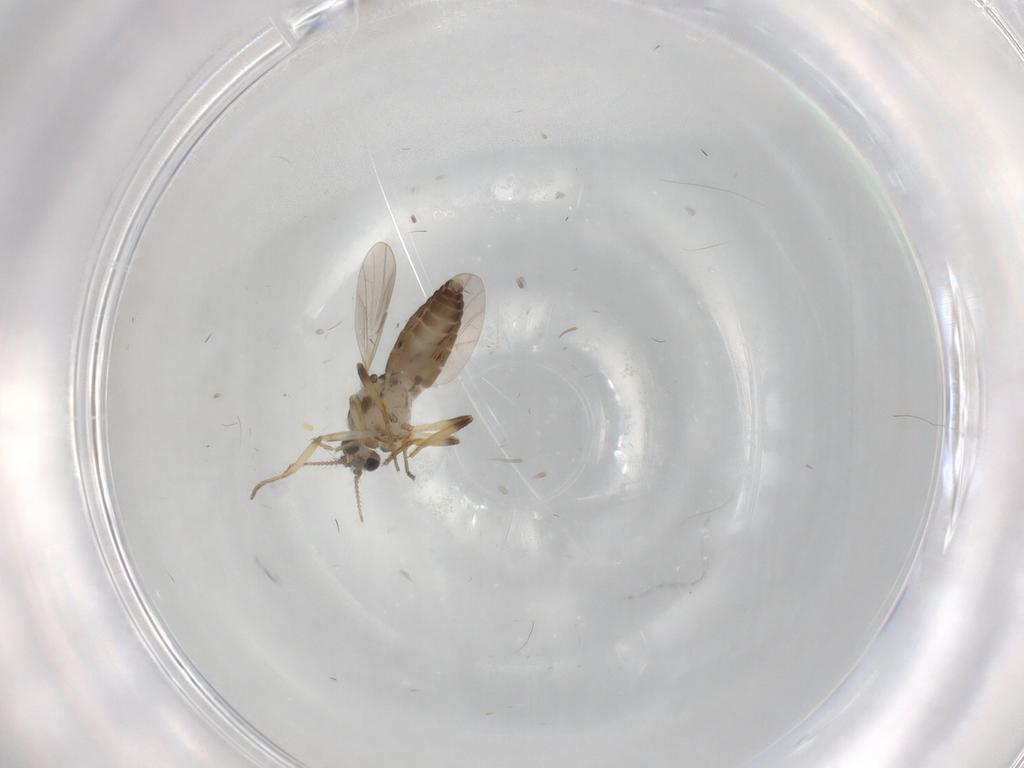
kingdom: Animalia
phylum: Arthropoda
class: Insecta
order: Diptera
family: Ceratopogonidae
